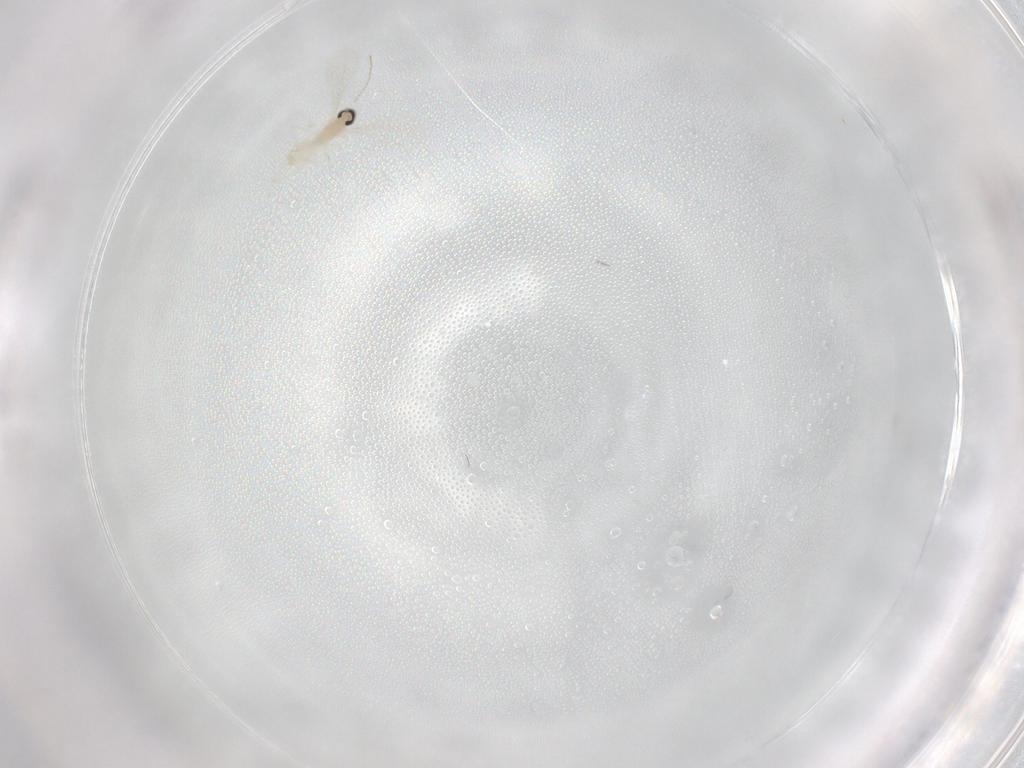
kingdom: Animalia
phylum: Arthropoda
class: Insecta
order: Diptera
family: Cecidomyiidae
